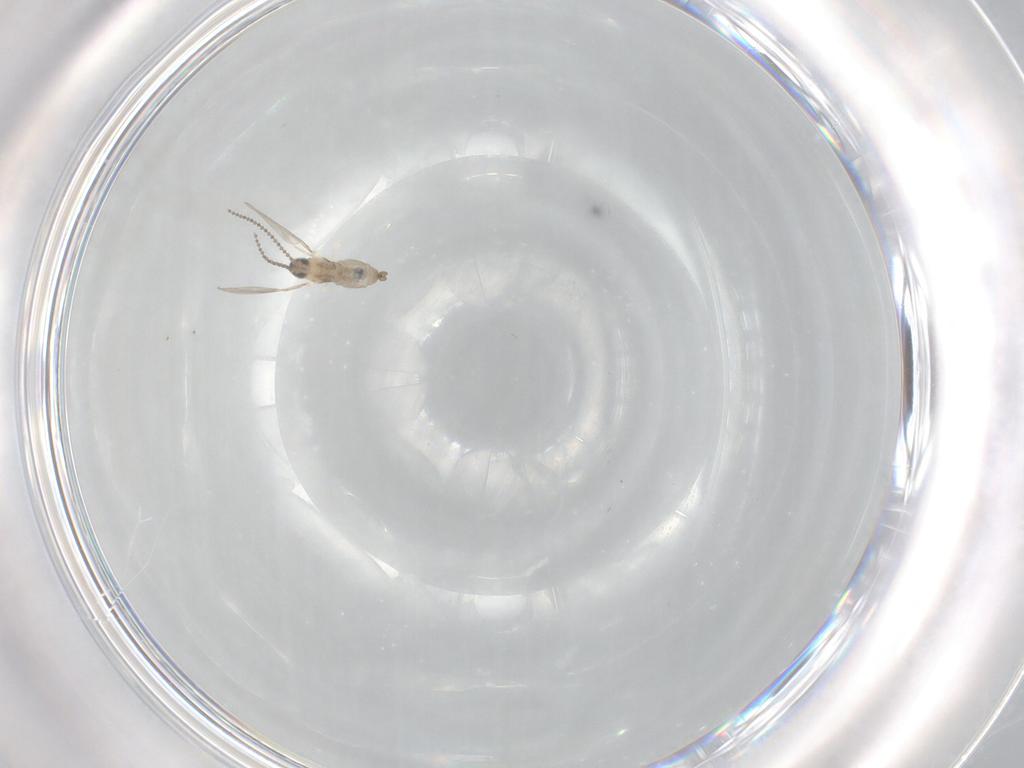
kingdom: Animalia
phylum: Arthropoda
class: Insecta
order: Diptera
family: Cecidomyiidae
